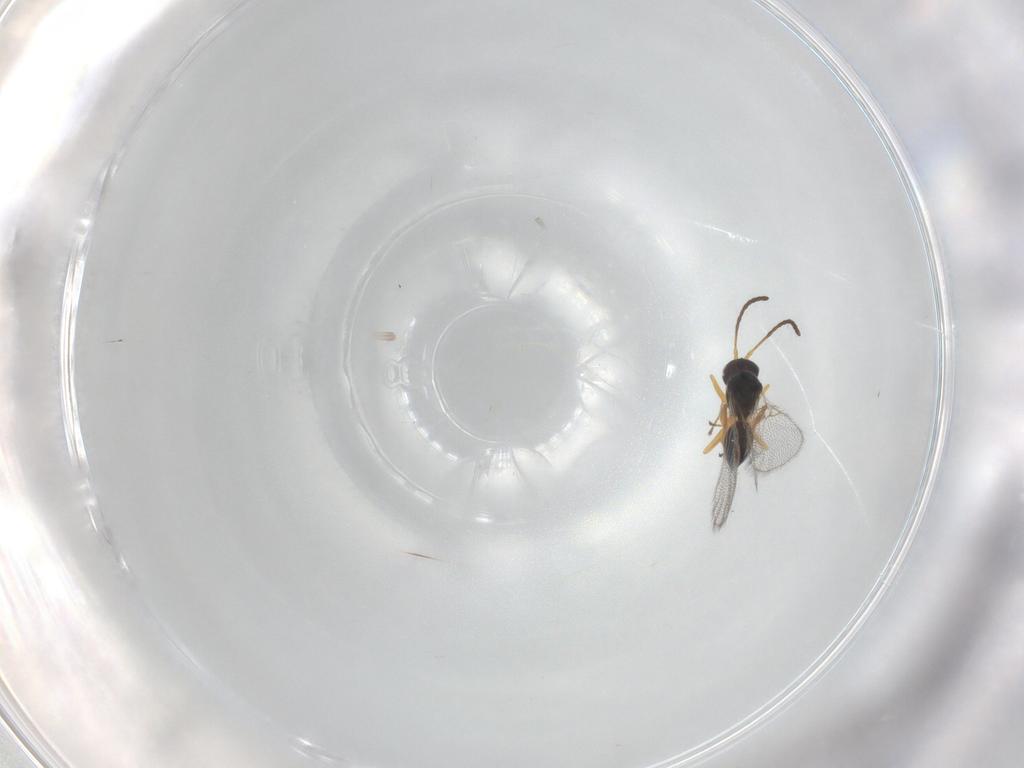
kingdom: Animalia
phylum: Arthropoda
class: Insecta
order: Hymenoptera
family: Figitidae
